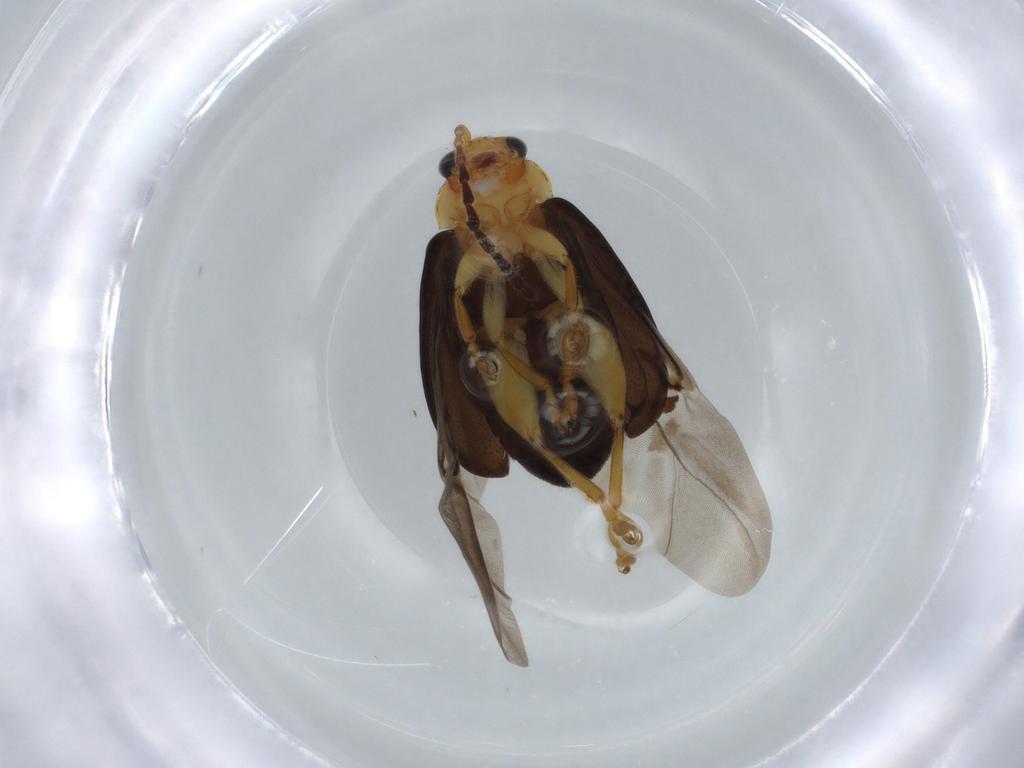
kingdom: Animalia
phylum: Arthropoda
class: Insecta
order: Coleoptera
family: Chrysomelidae
